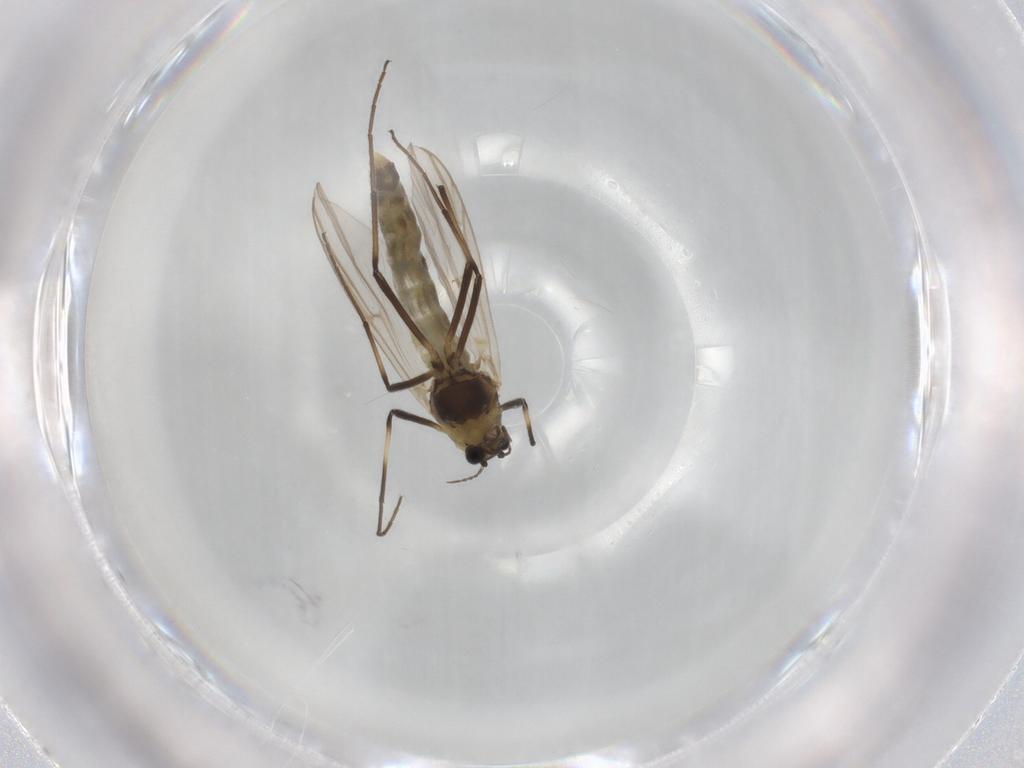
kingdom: Animalia
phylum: Arthropoda
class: Insecta
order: Diptera
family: Chironomidae
